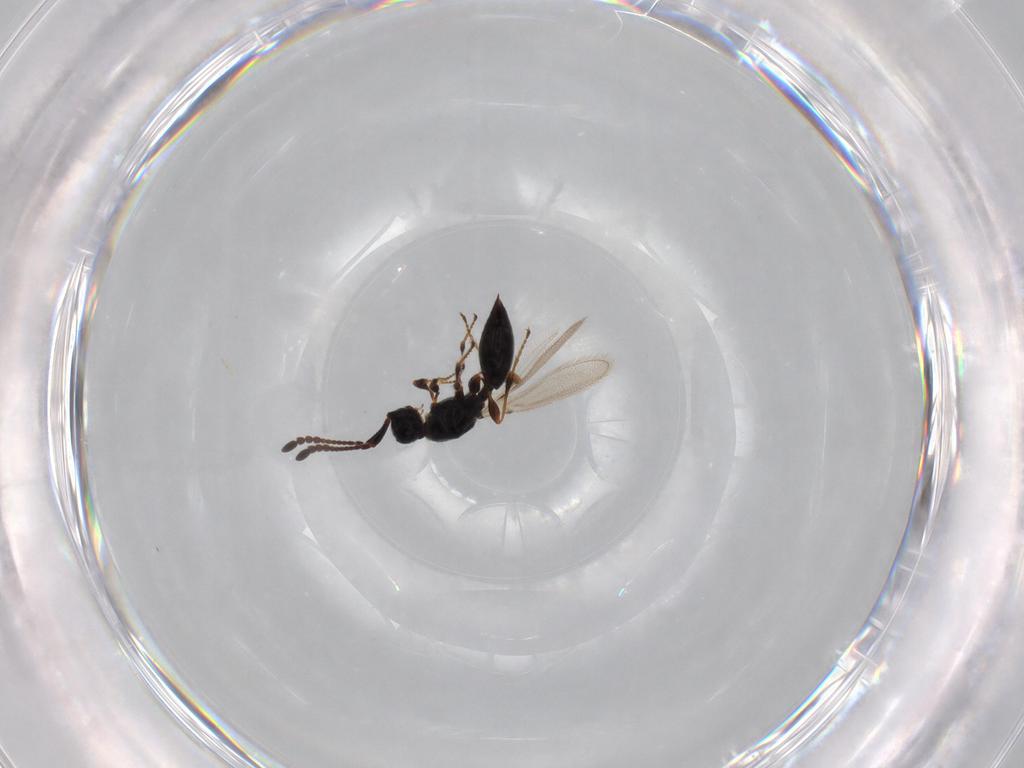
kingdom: Animalia
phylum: Arthropoda
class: Insecta
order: Hymenoptera
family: Diapriidae
